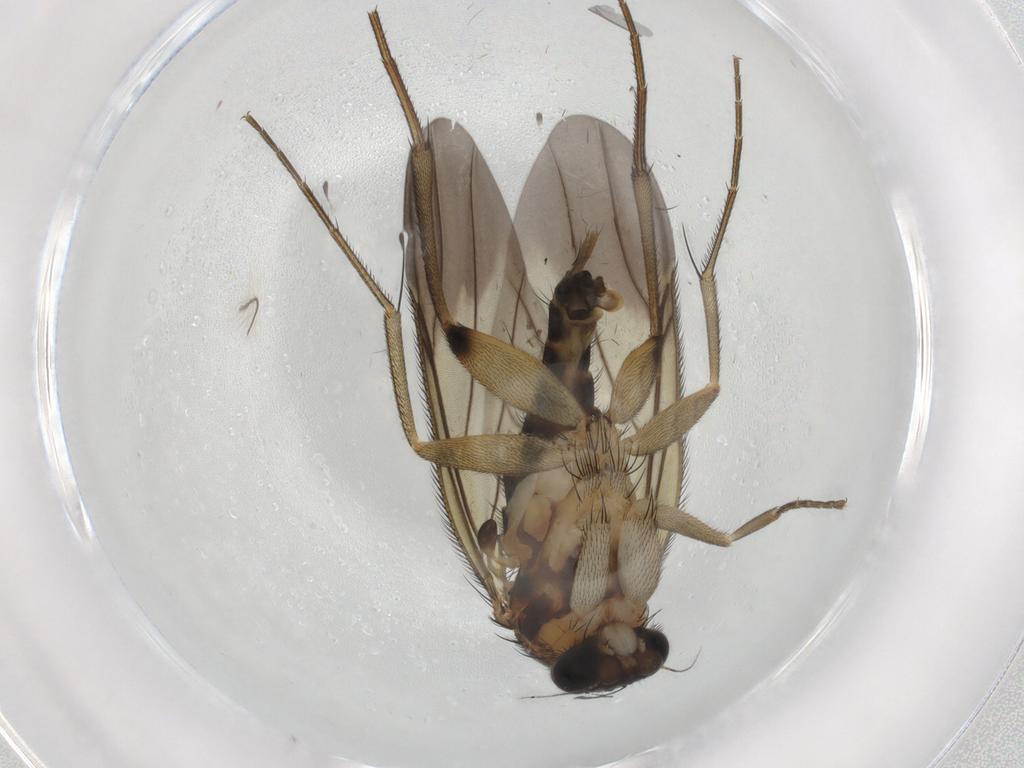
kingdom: Animalia
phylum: Arthropoda
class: Insecta
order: Diptera
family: Phoridae
